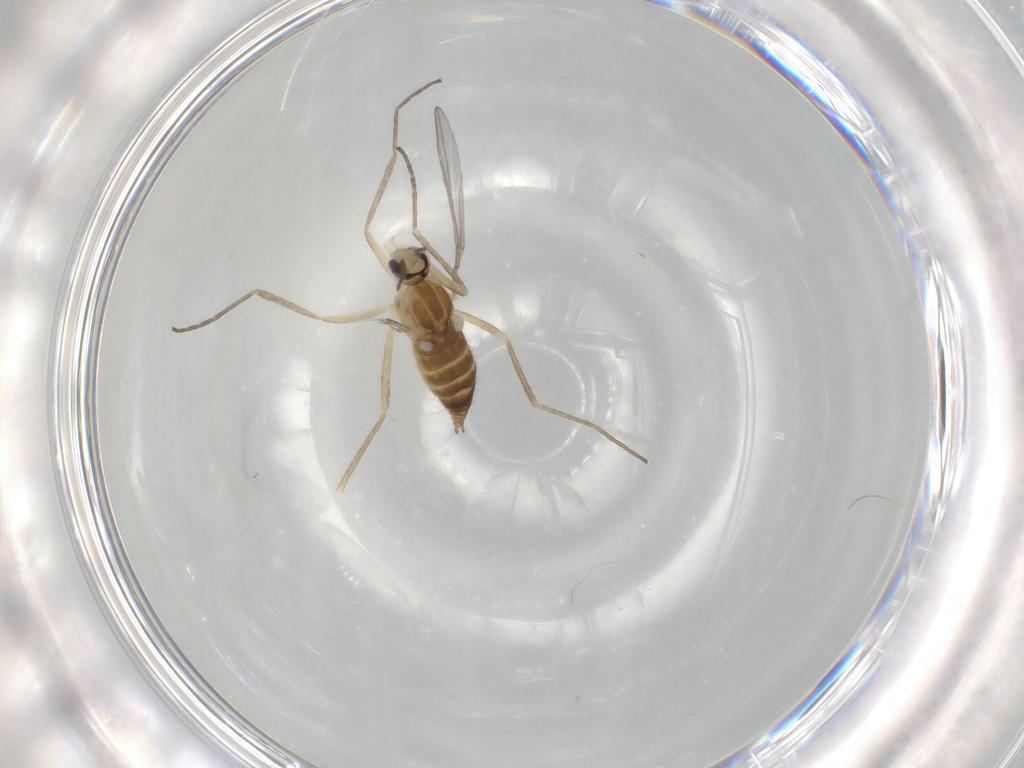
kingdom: Animalia
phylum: Arthropoda
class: Insecta
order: Diptera
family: Cecidomyiidae
